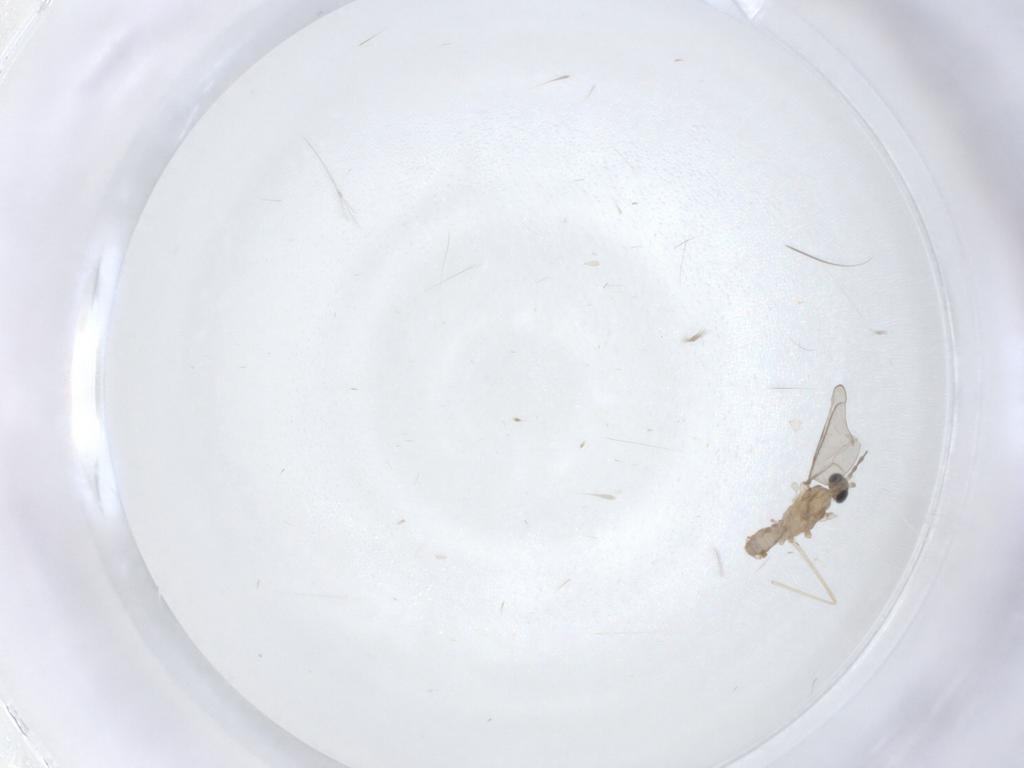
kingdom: Animalia
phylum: Arthropoda
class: Insecta
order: Diptera
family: Cecidomyiidae
